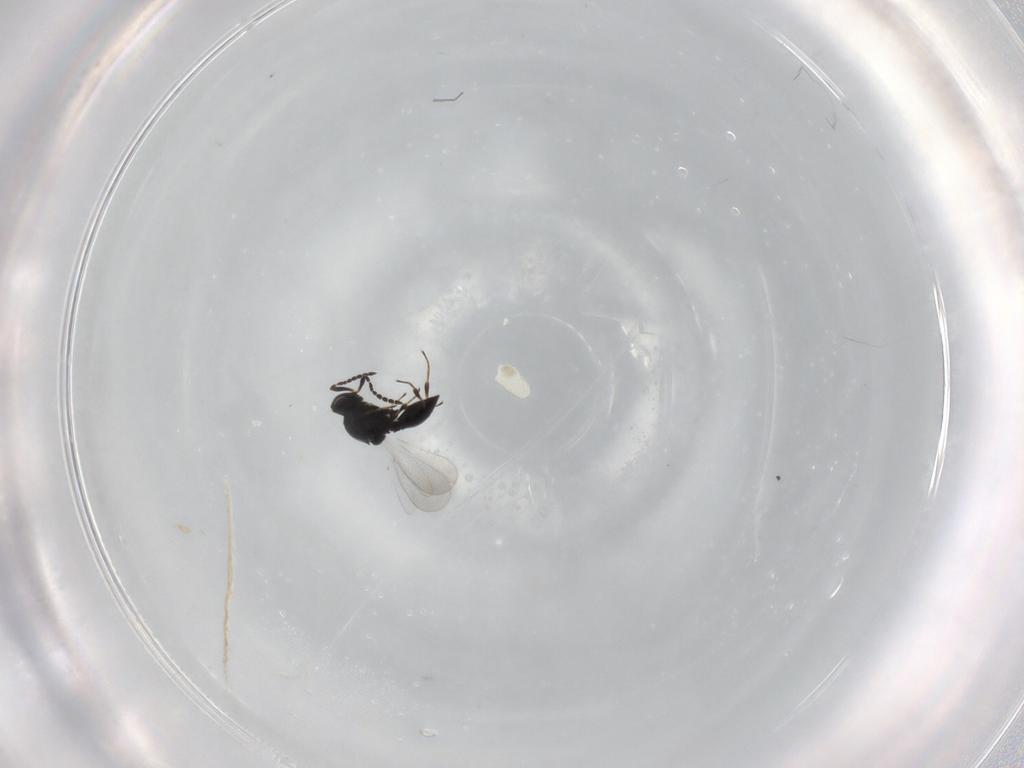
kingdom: Animalia
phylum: Arthropoda
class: Insecta
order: Hymenoptera
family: Platygastridae
